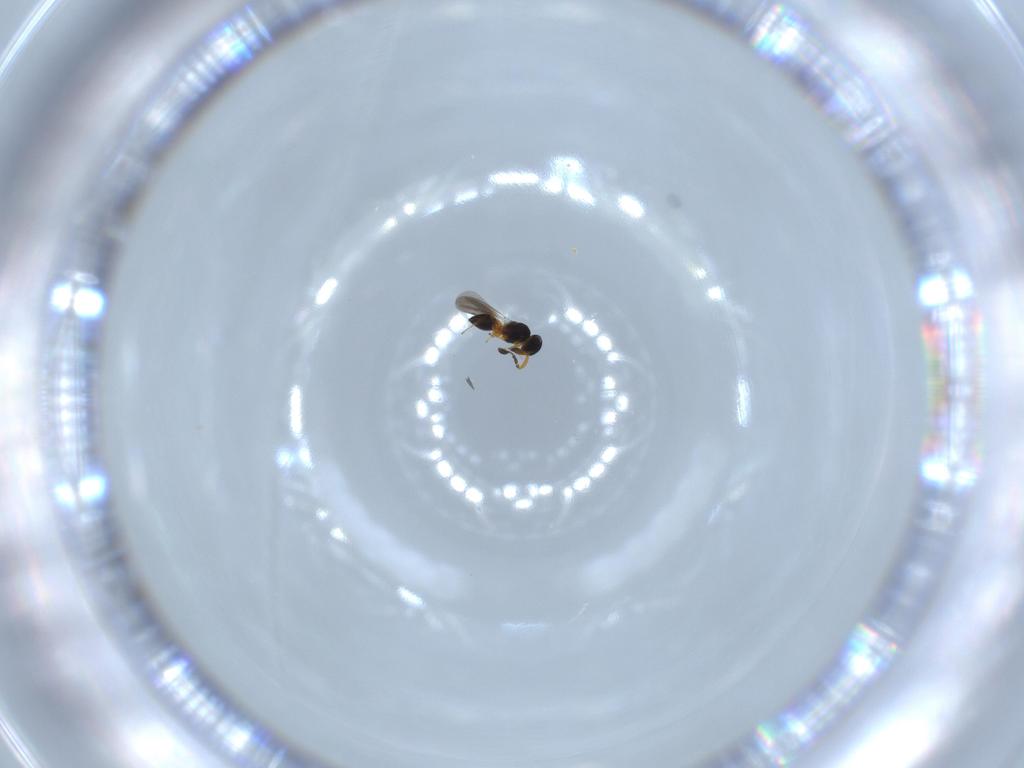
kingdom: Animalia
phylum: Arthropoda
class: Insecta
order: Hymenoptera
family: Platygastridae
